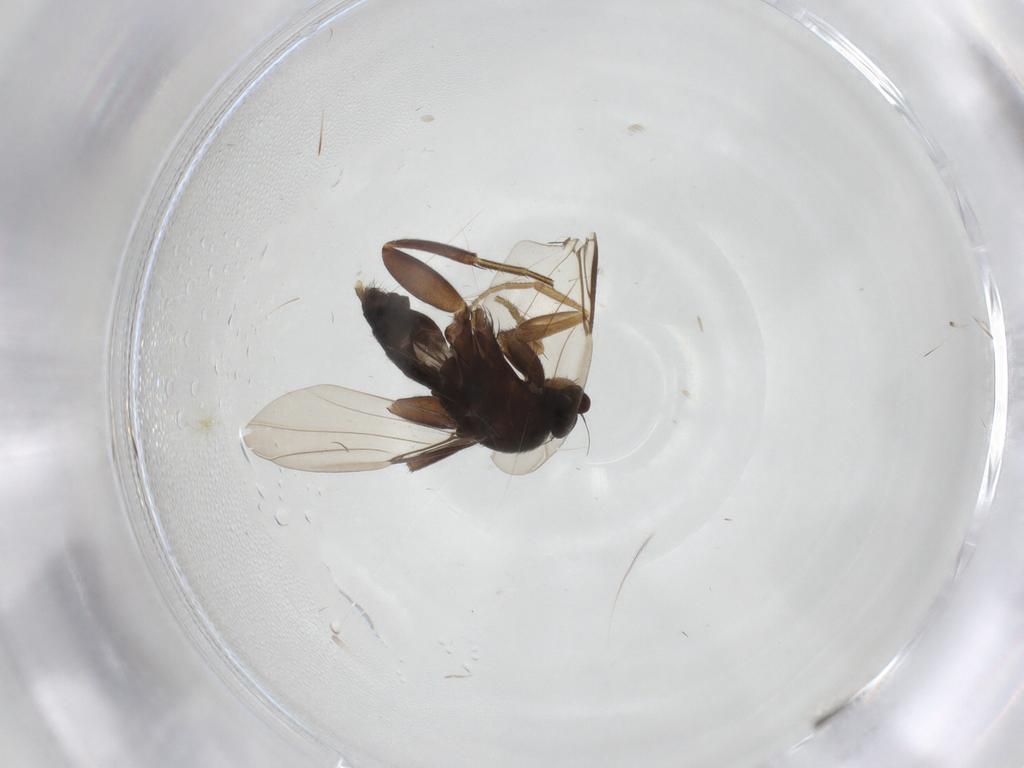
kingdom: Animalia
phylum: Arthropoda
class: Insecta
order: Diptera
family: Phoridae
